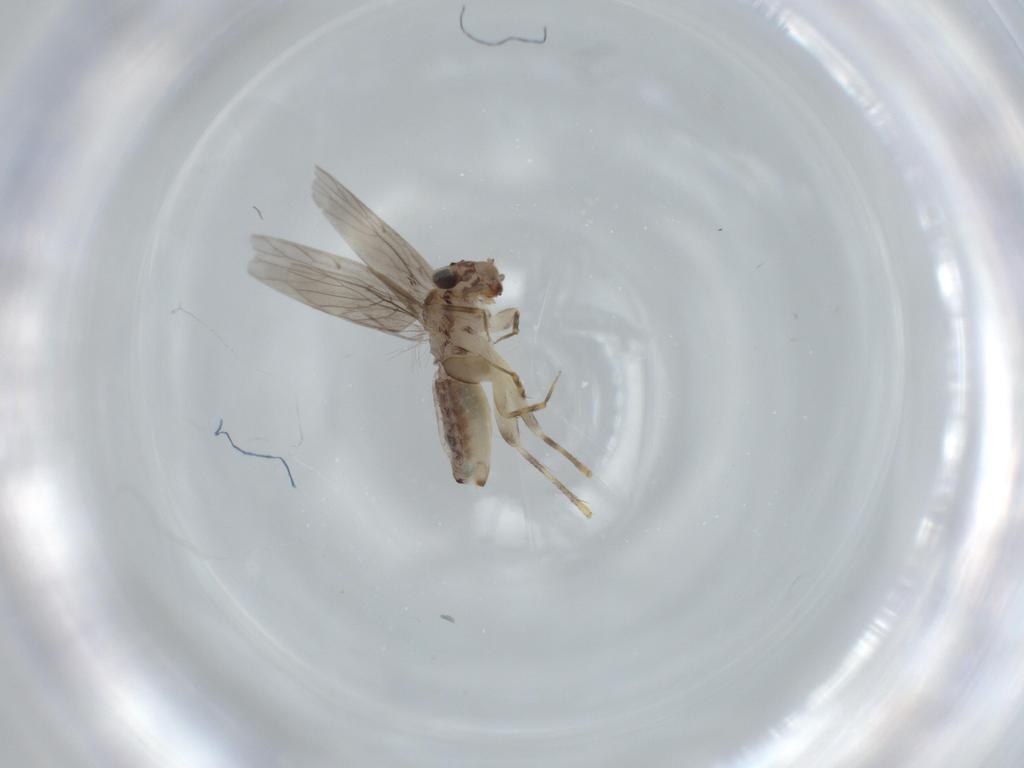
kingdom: Animalia
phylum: Arthropoda
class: Insecta
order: Psocodea
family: Lepidopsocidae
